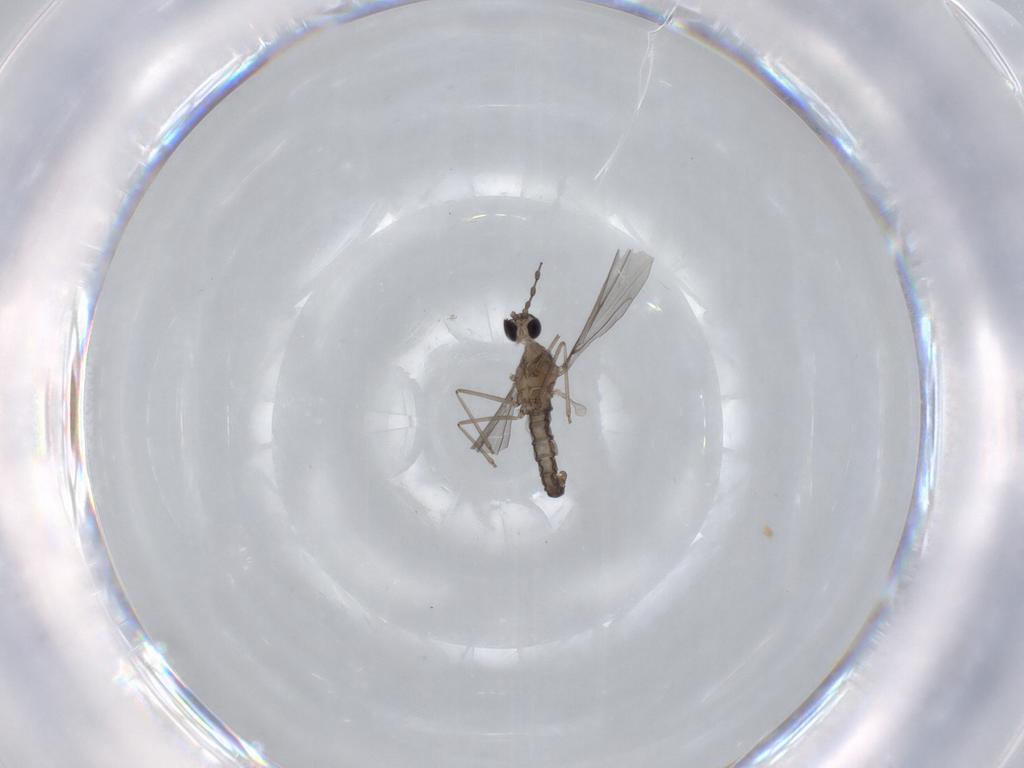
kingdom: Animalia
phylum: Arthropoda
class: Insecta
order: Diptera
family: Cecidomyiidae
